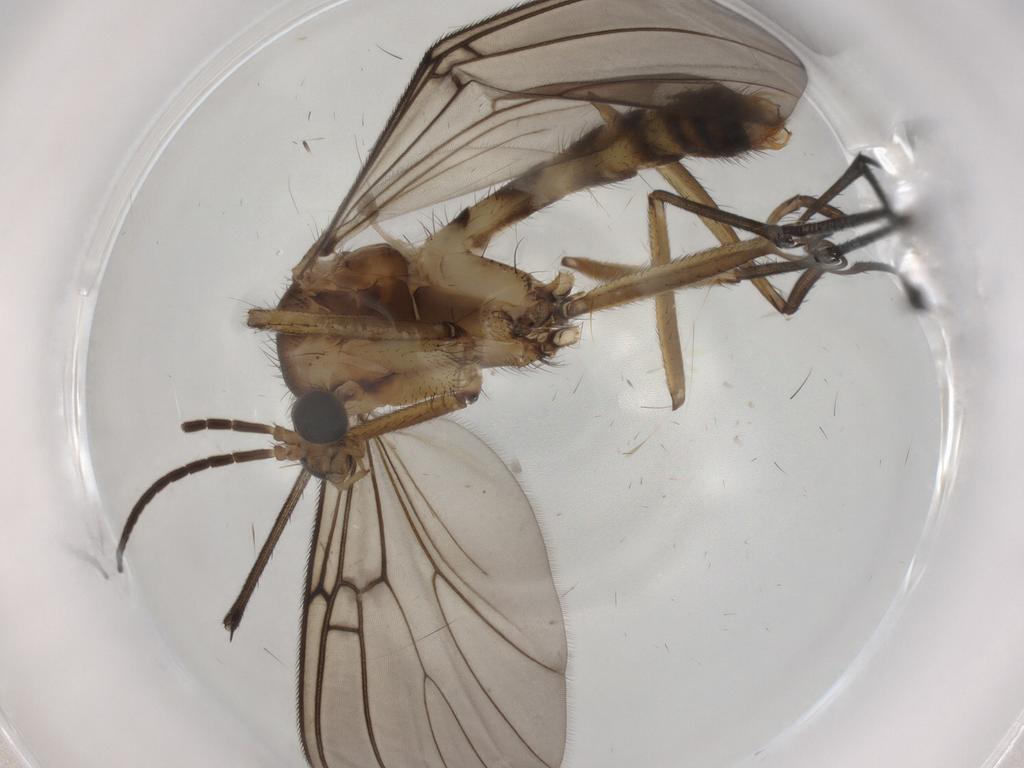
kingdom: Animalia
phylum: Arthropoda
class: Insecta
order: Diptera
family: Mycetophilidae
